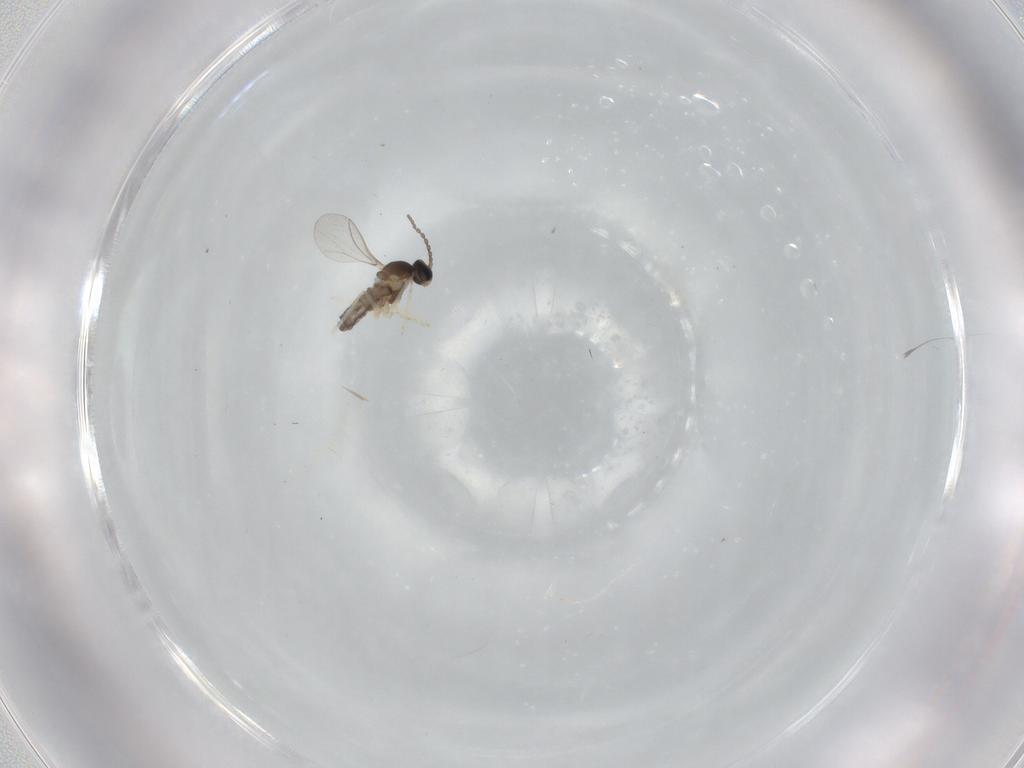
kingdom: Animalia
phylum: Arthropoda
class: Insecta
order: Diptera
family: Cecidomyiidae
